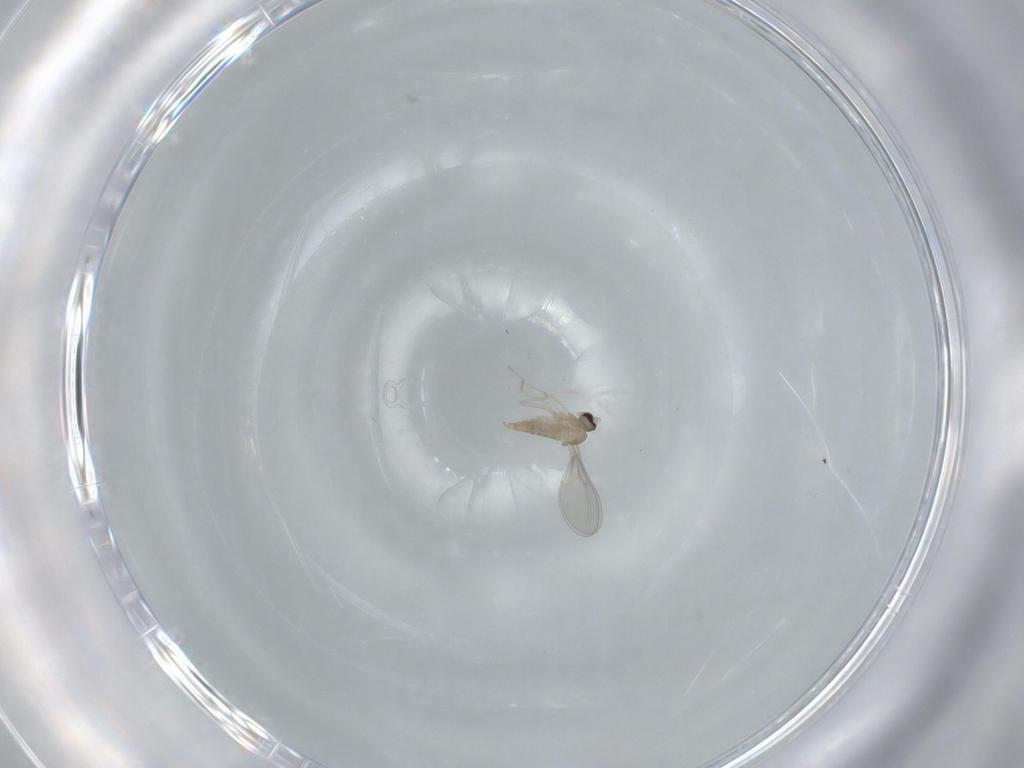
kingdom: Animalia
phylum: Arthropoda
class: Insecta
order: Diptera
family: Cecidomyiidae
